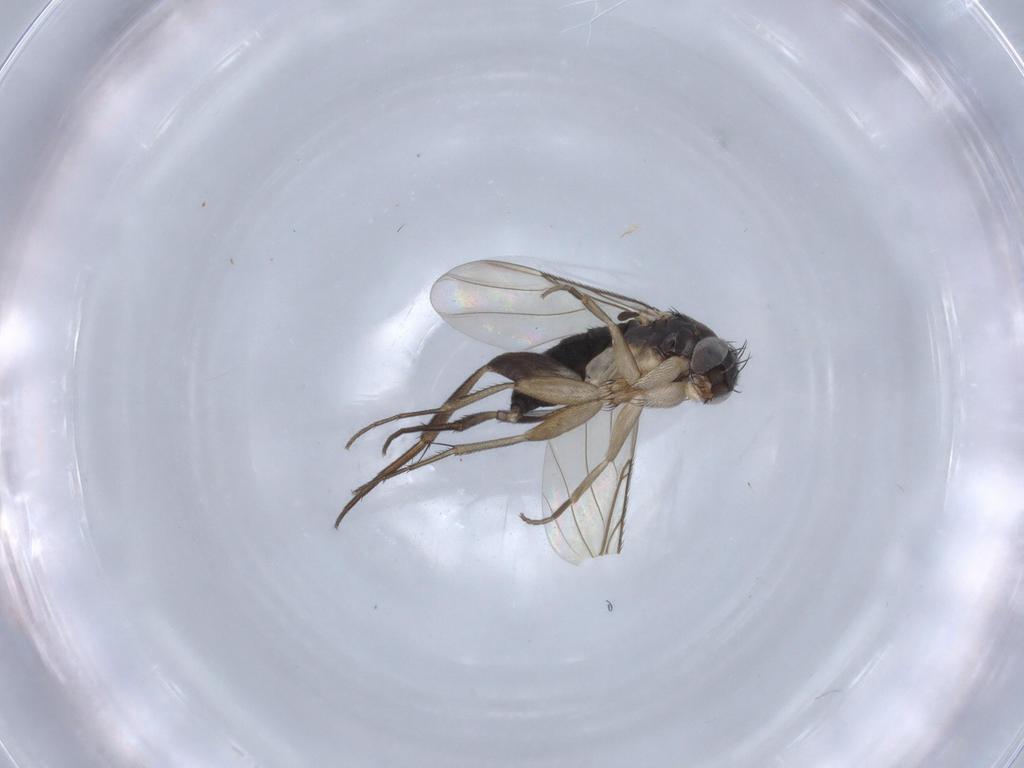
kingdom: Animalia
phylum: Arthropoda
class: Insecta
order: Diptera
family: Phoridae
